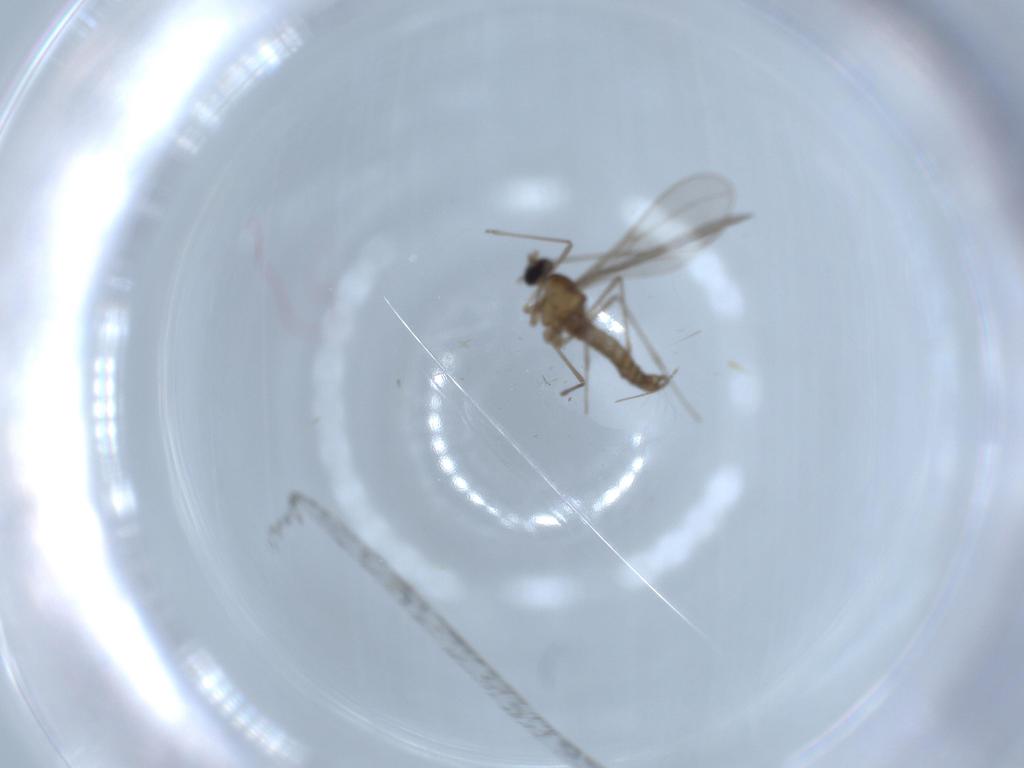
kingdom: Animalia
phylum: Arthropoda
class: Insecta
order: Diptera
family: Cecidomyiidae
